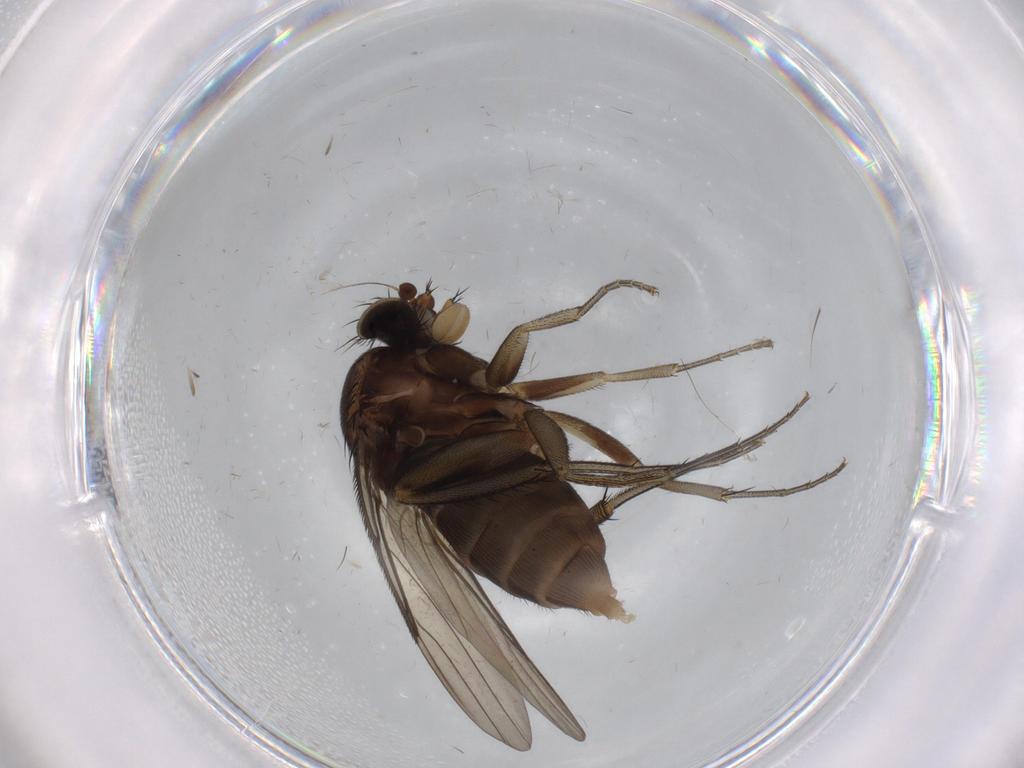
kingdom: Animalia
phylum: Arthropoda
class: Insecta
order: Diptera
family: Phoridae
